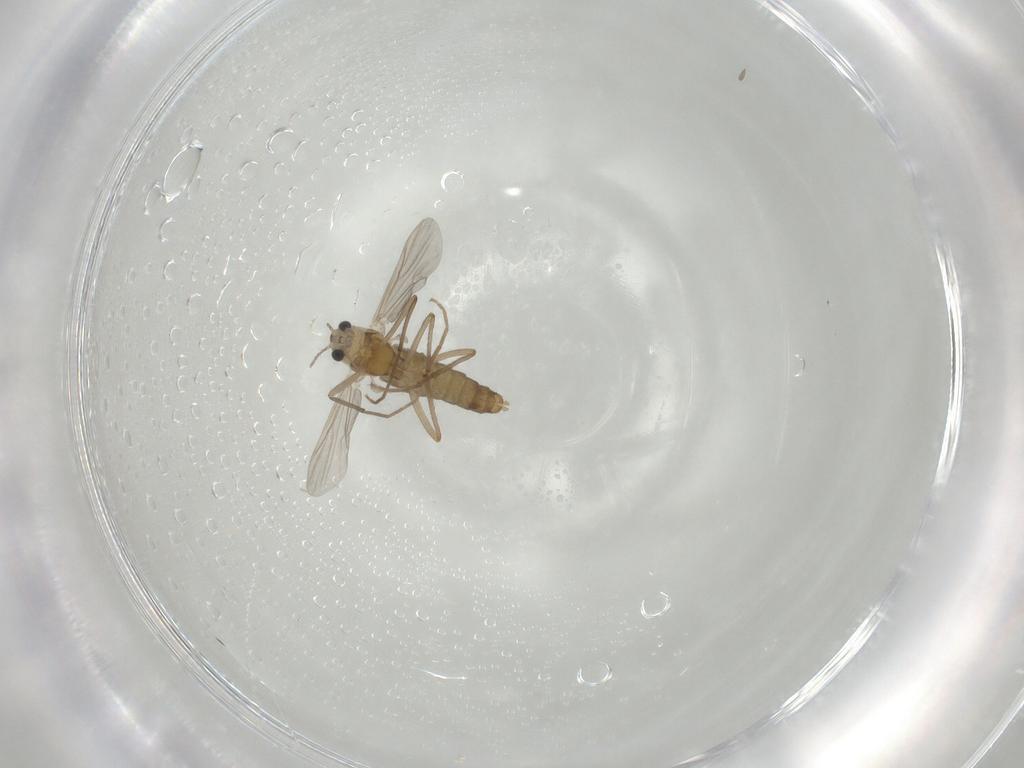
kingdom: Animalia
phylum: Arthropoda
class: Insecta
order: Diptera
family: Chironomidae
